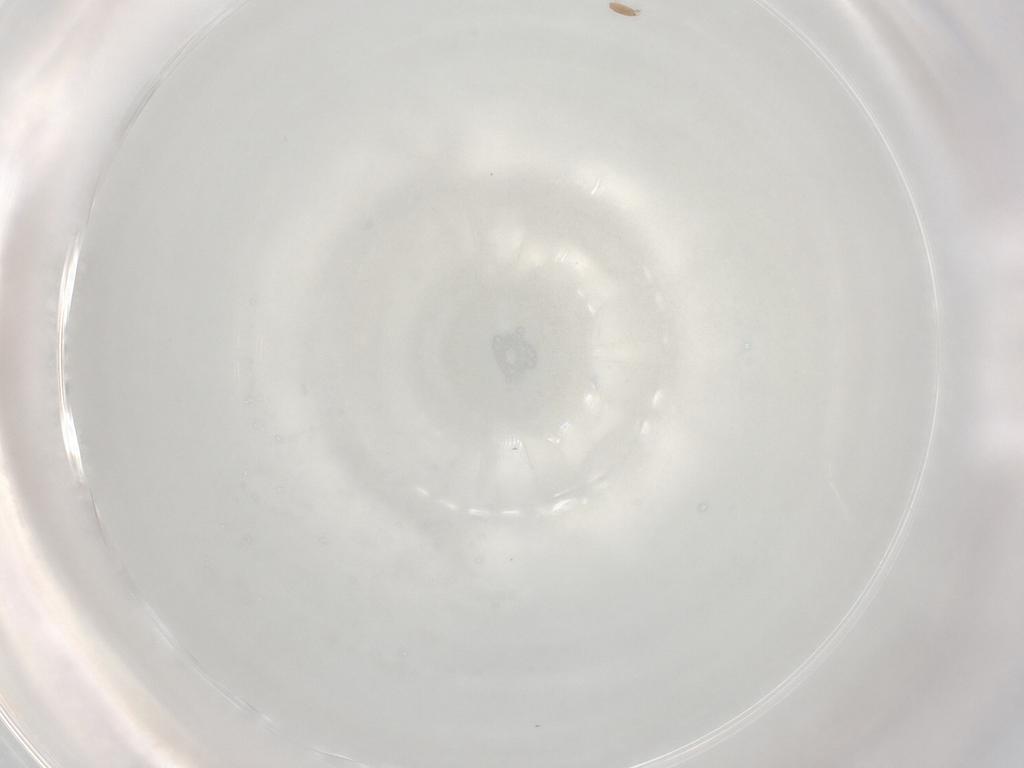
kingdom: Animalia
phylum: Arthropoda
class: Arachnida
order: Sarcoptiformes
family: Hemisarcoptidae
